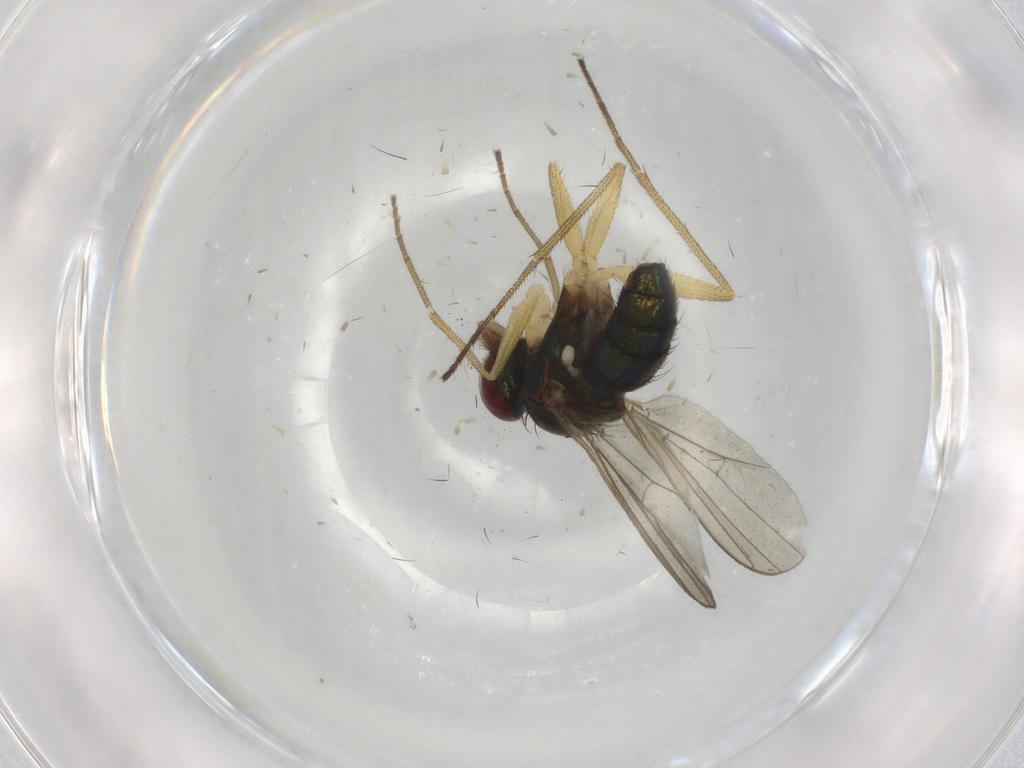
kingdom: Animalia
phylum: Arthropoda
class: Insecta
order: Diptera
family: Dolichopodidae
